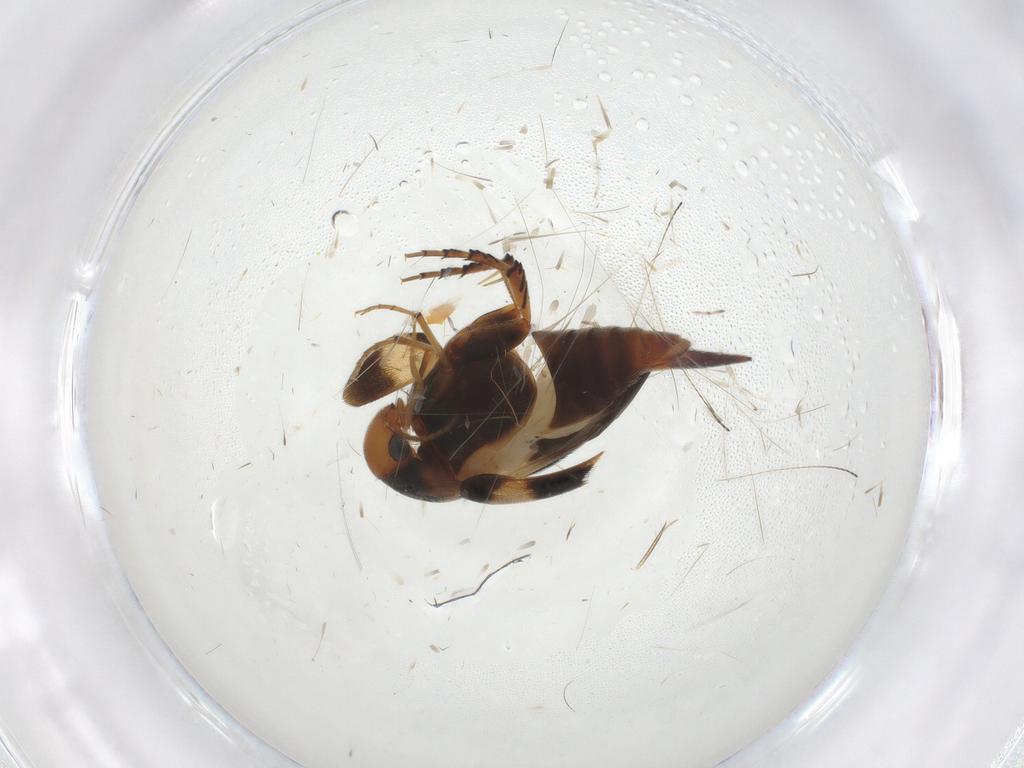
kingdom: Animalia
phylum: Arthropoda
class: Insecta
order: Coleoptera
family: Mordellidae
